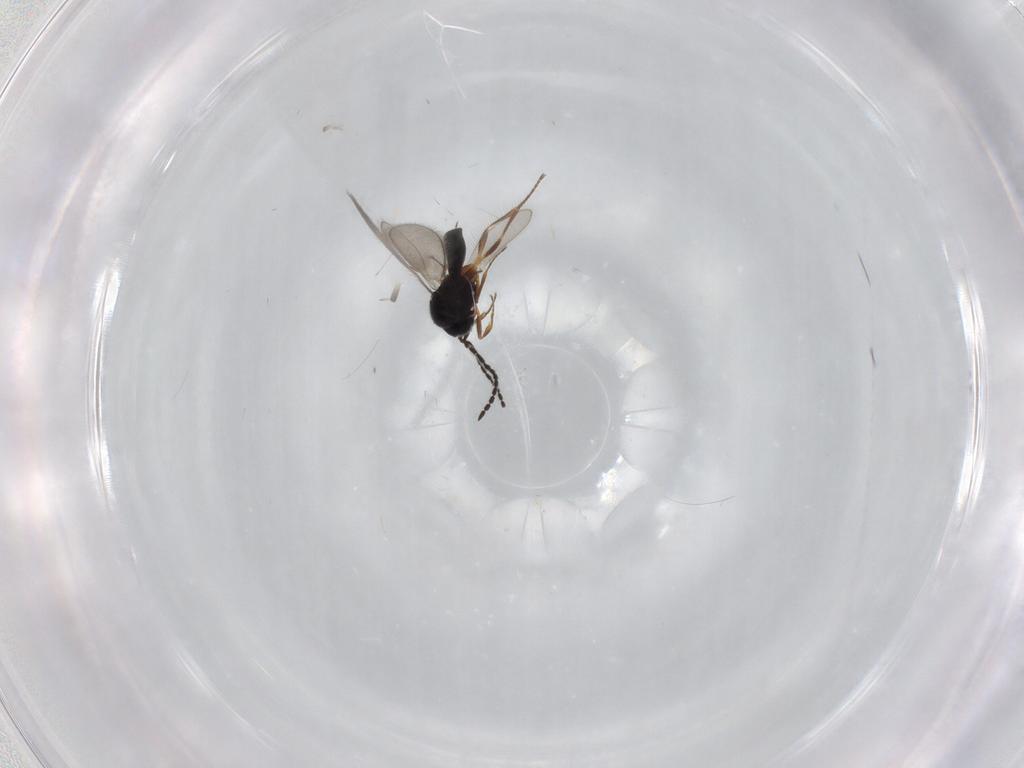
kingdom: Animalia
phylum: Arthropoda
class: Insecta
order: Hymenoptera
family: Scelionidae
